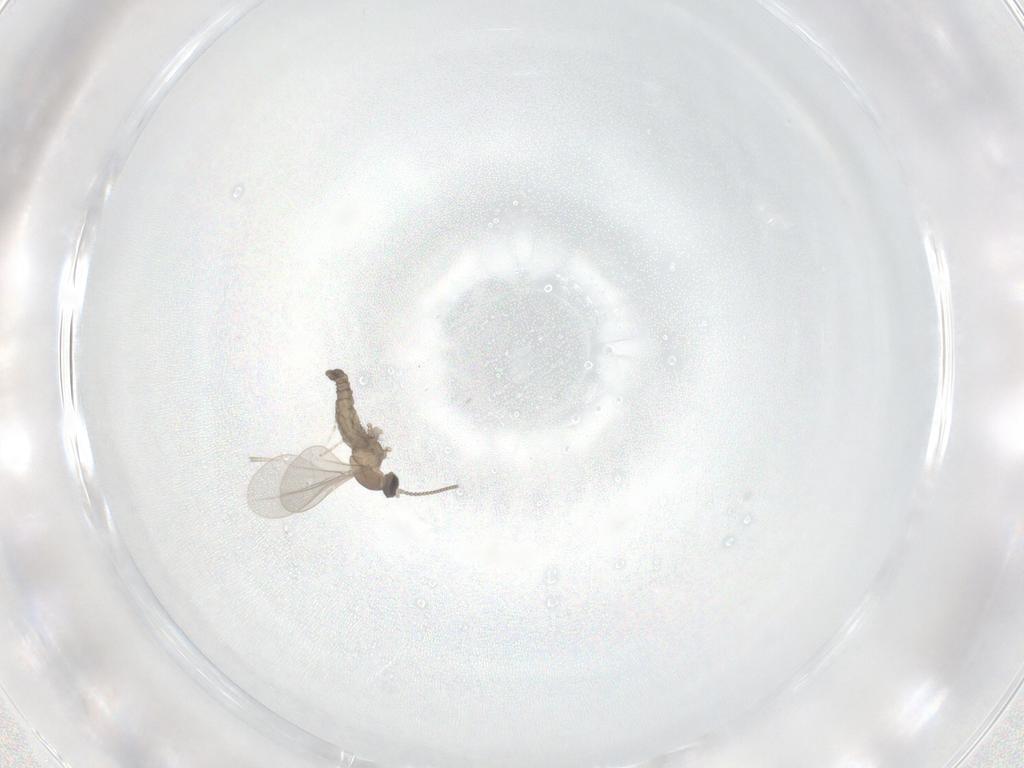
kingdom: Animalia
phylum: Arthropoda
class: Insecta
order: Diptera
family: Cecidomyiidae
